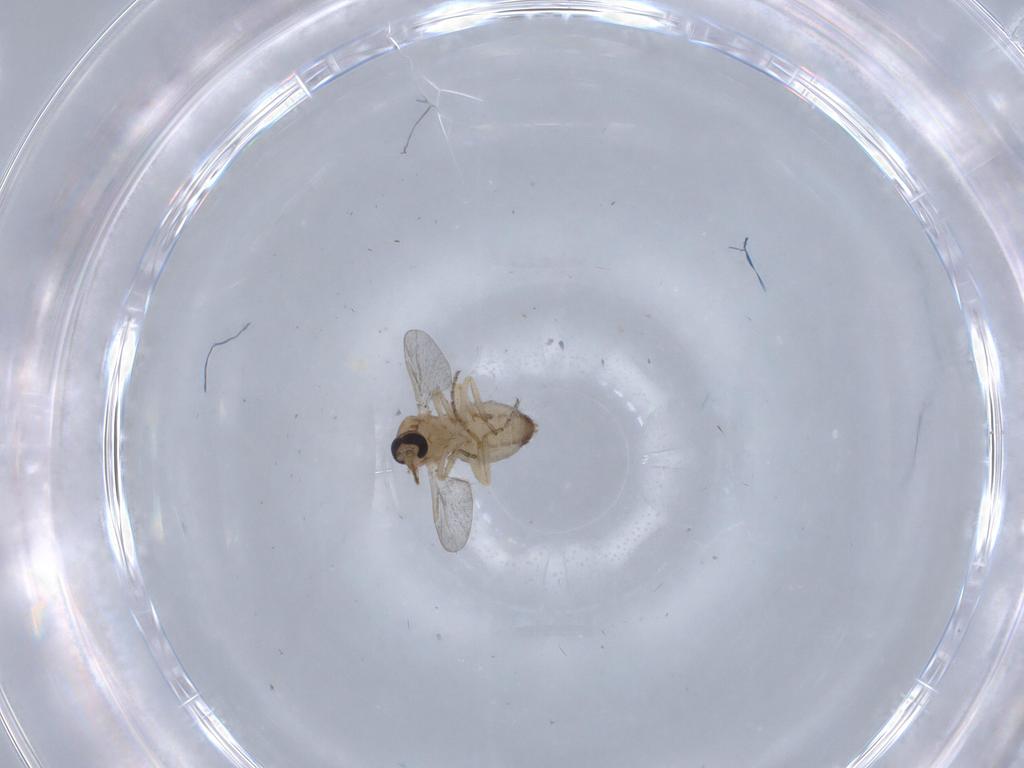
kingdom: Animalia
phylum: Arthropoda
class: Insecta
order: Diptera
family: Ceratopogonidae
